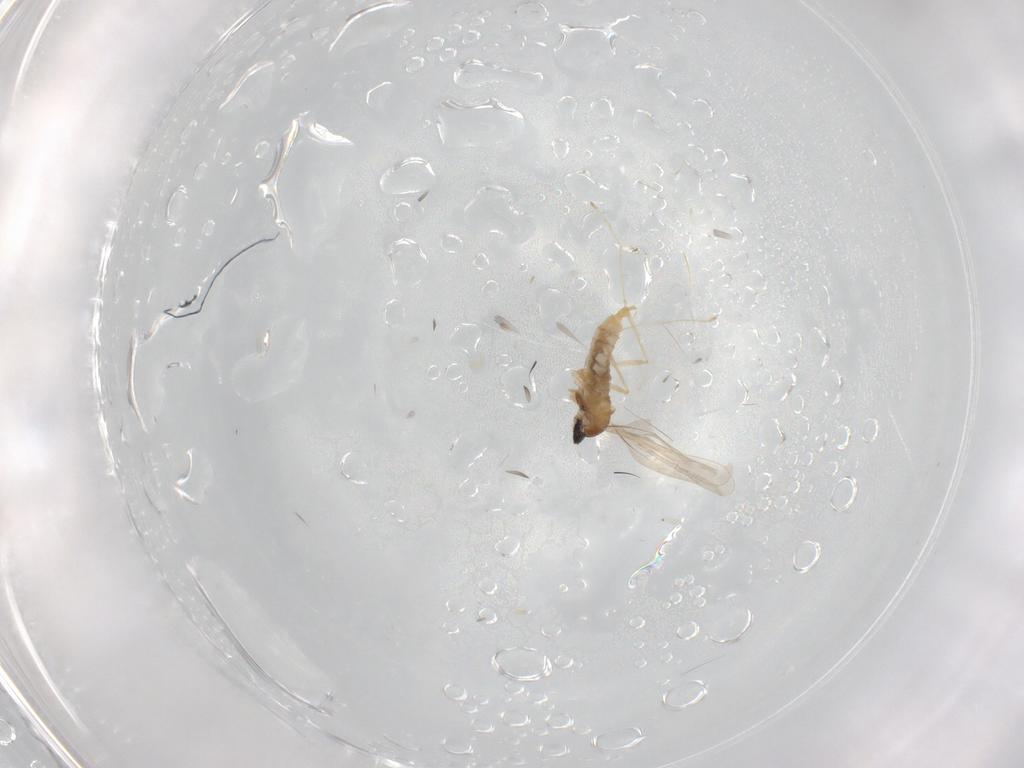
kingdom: Animalia
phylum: Arthropoda
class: Insecta
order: Diptera
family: Cecidomyiidae
